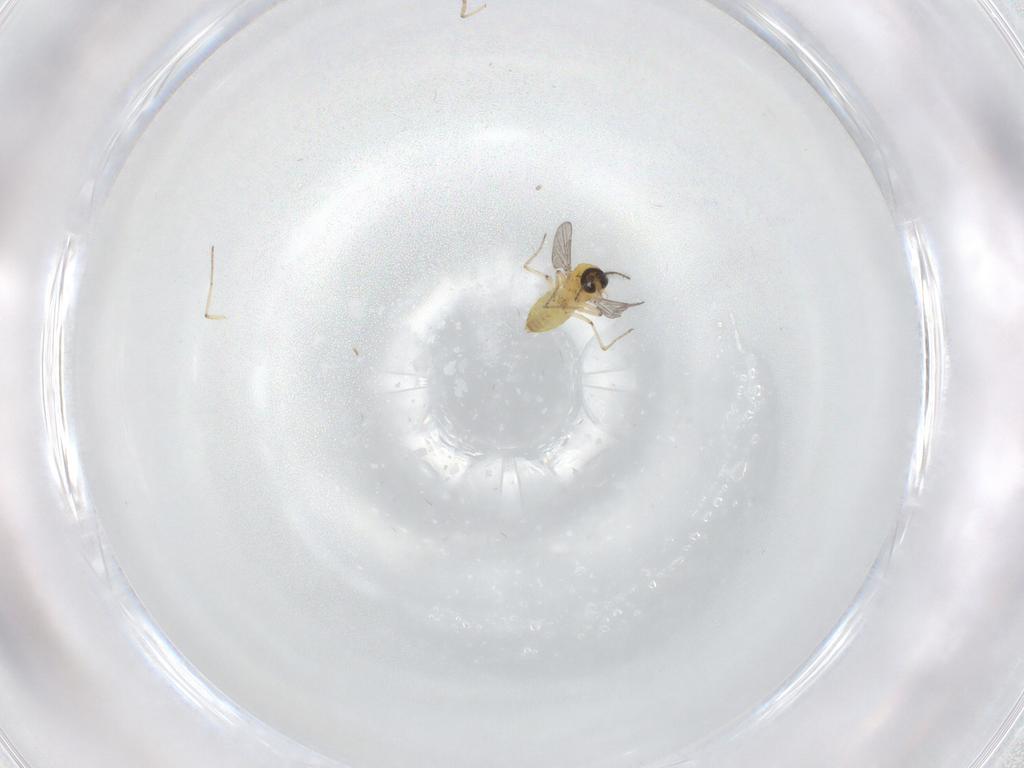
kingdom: Animalia
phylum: Arthropoda
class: Insecta
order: Diptera
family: Ceratopogonidae
